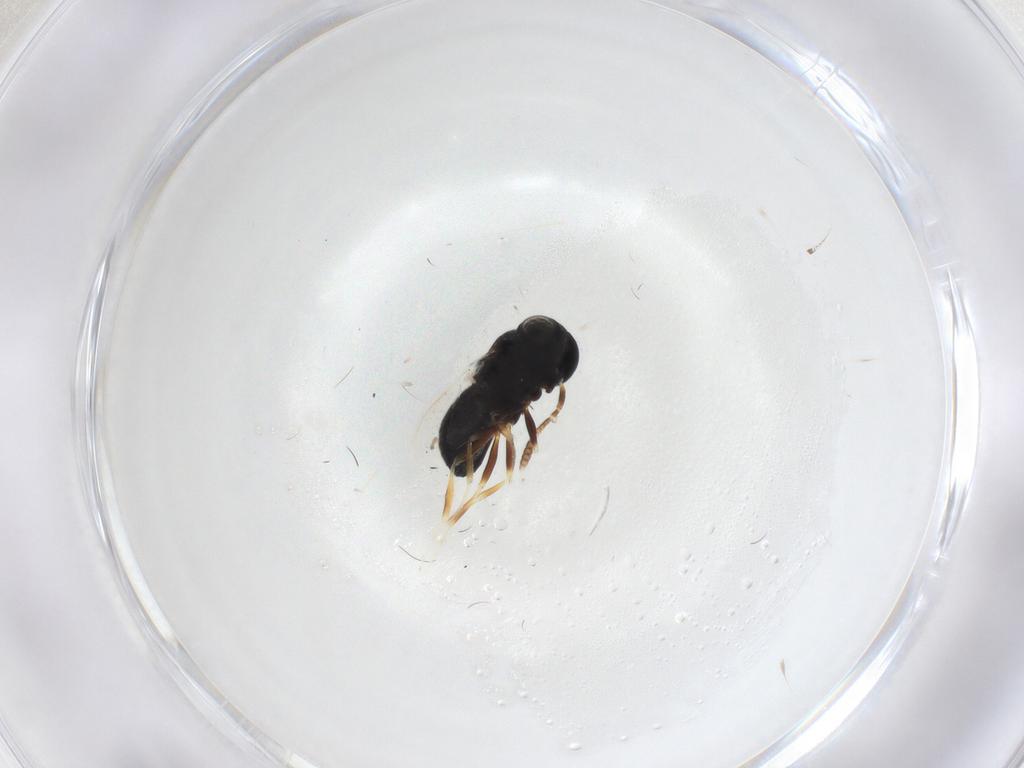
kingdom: Animalia
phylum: Arthropoda
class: Insecta
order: Hymenoptera
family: Scelionidae
